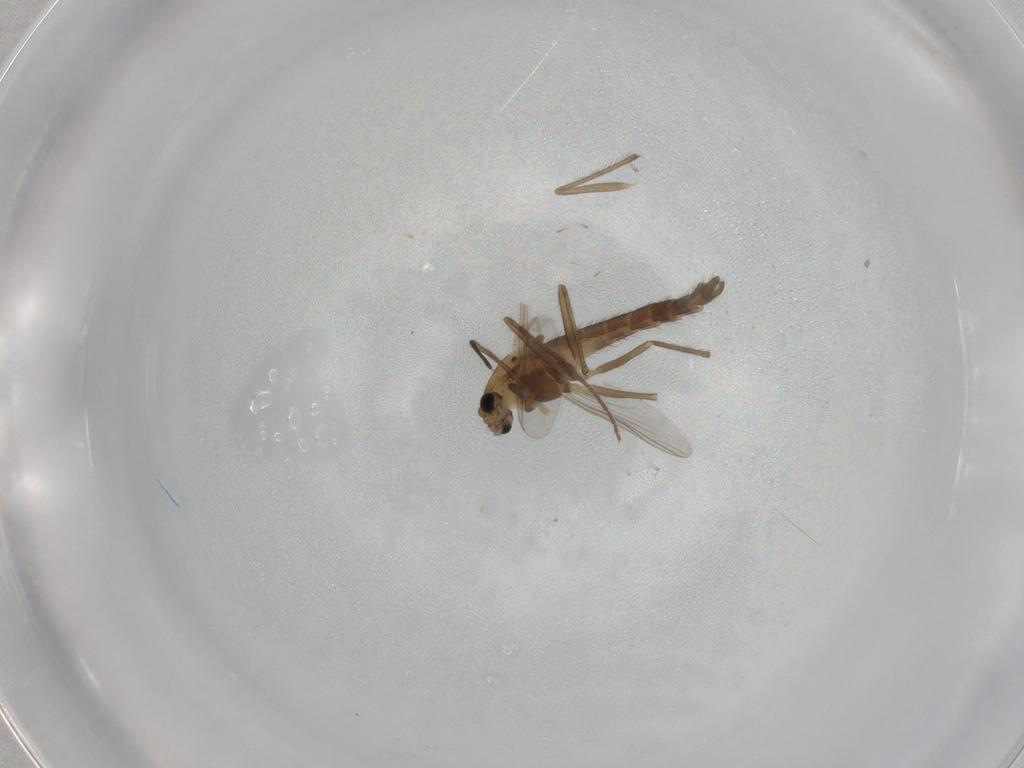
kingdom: Animalia
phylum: Arthropoda
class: Insecta
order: Diptera
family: Chironomidae
